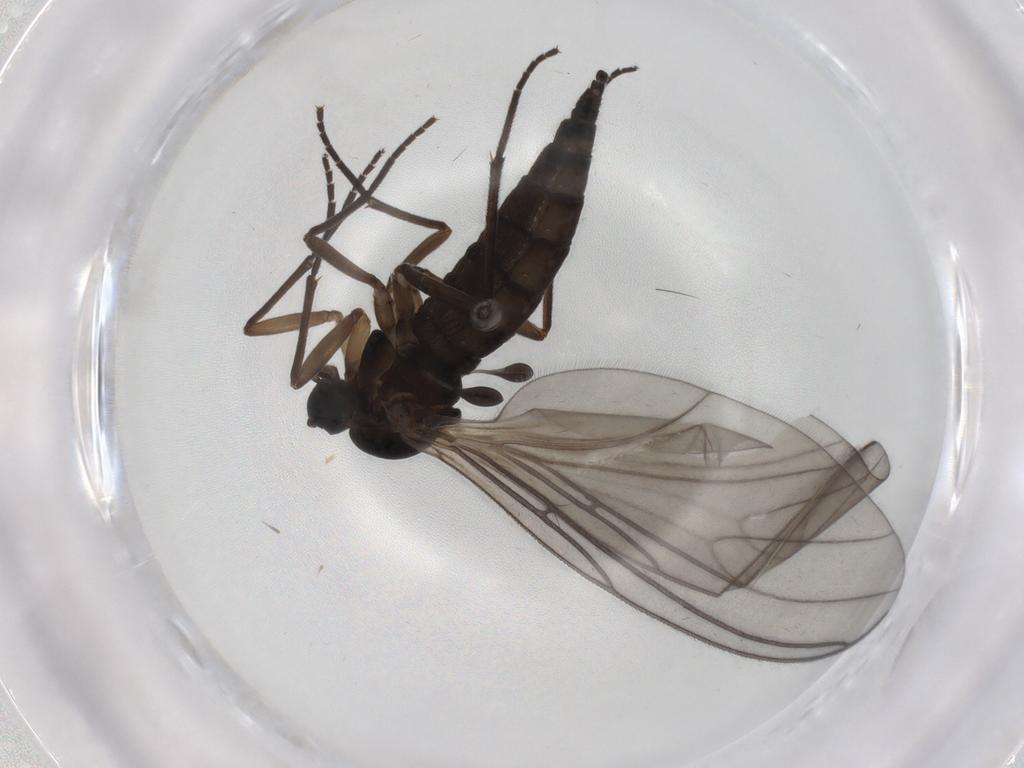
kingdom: Animalia
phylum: Arthropoda
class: Insecta
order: Diptera
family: Sciaridae
